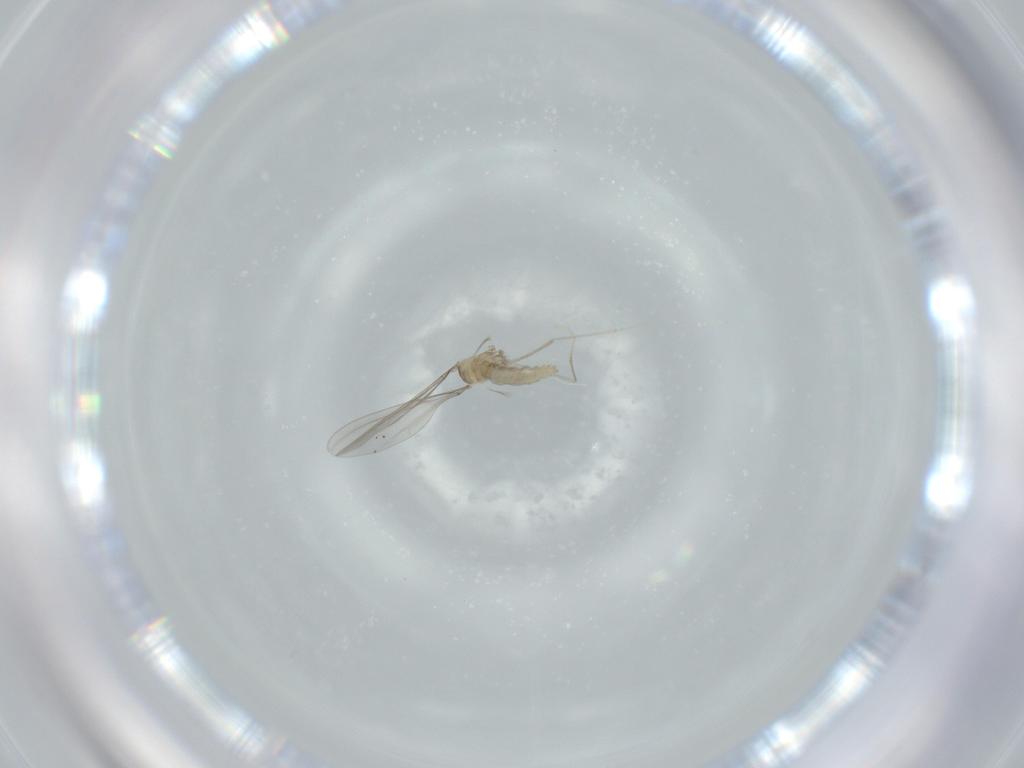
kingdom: Animalia
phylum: Arthropoda
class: Insecta
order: Diptera
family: Cecidomyiidae
